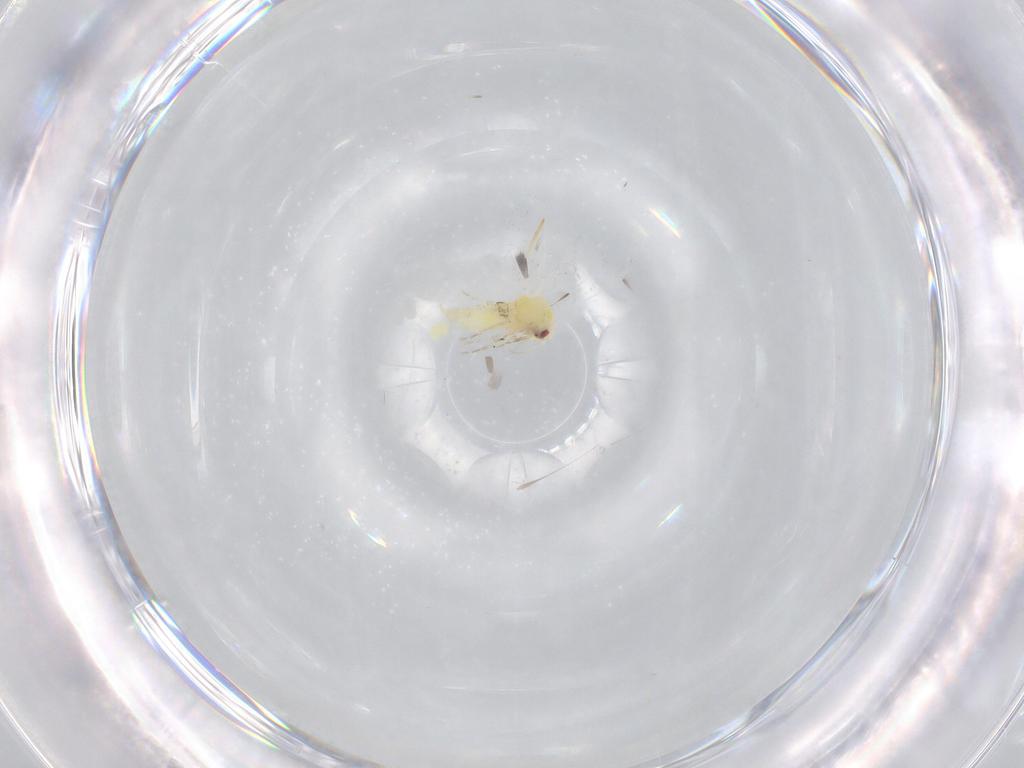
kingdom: Animalia
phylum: Arthropoda
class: Insecta
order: Hemiptera
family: Aleyrodidae
